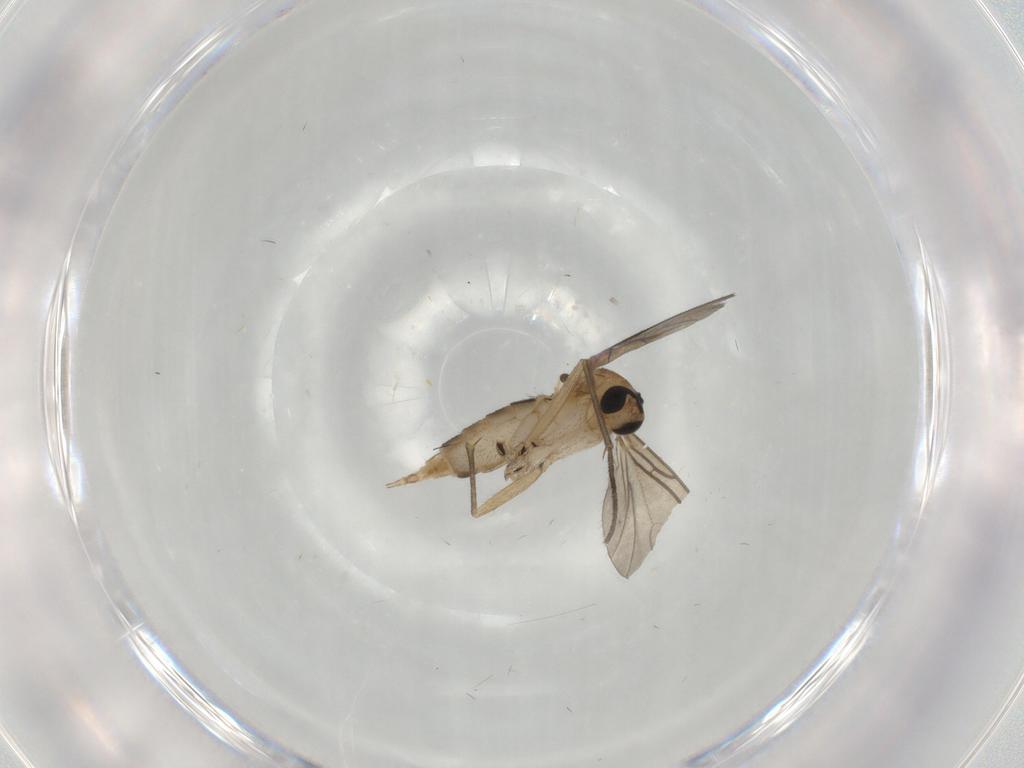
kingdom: Animalia
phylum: Arthropoda
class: Insecta
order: Diptera
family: Sciaridae
